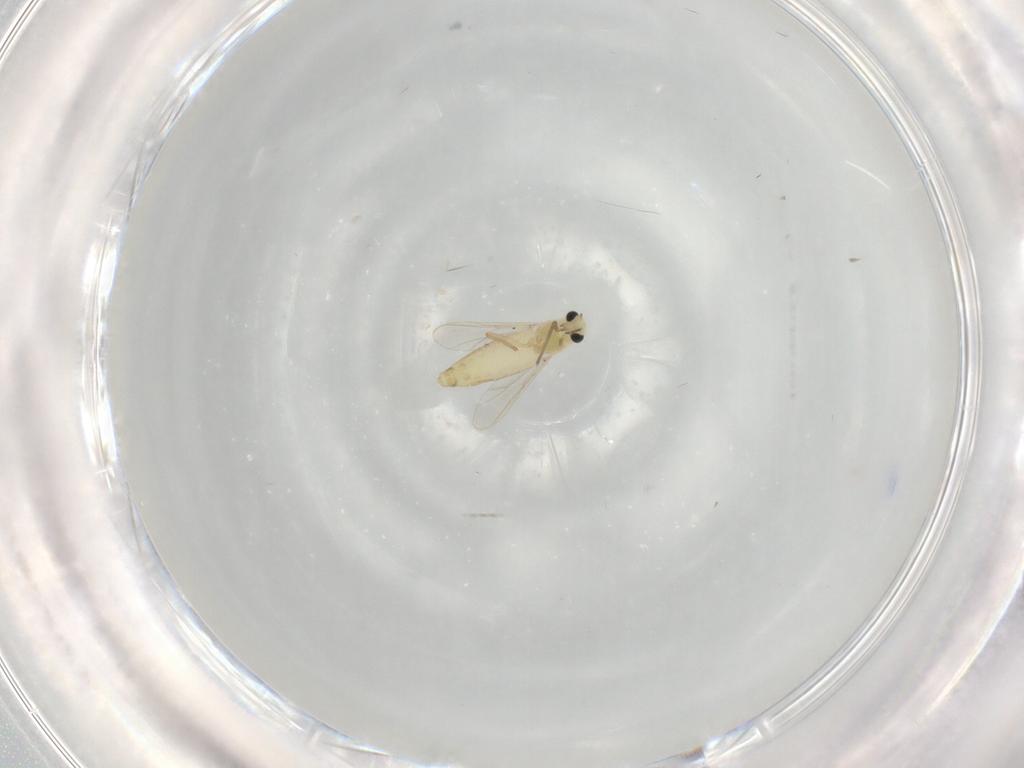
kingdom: Animalia
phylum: Arthropoda
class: Insecta
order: Diptera
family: Chironomidae
